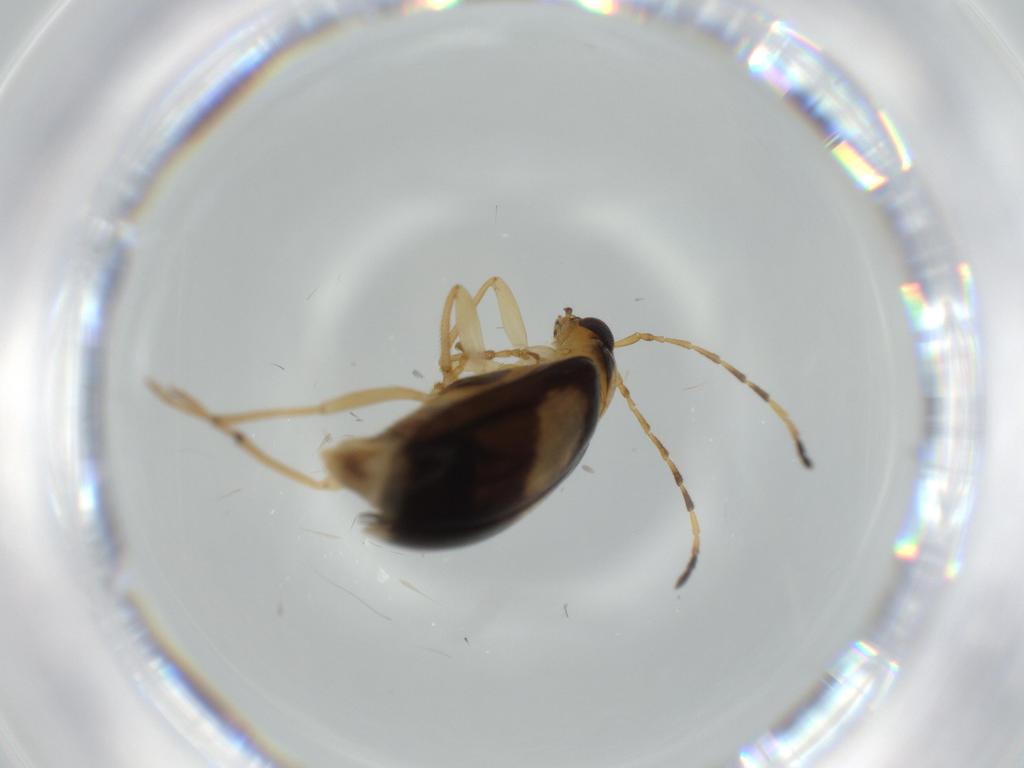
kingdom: Animalia
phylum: Arthropoda
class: Insecta
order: Coleoptera
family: Chrysomelidae
